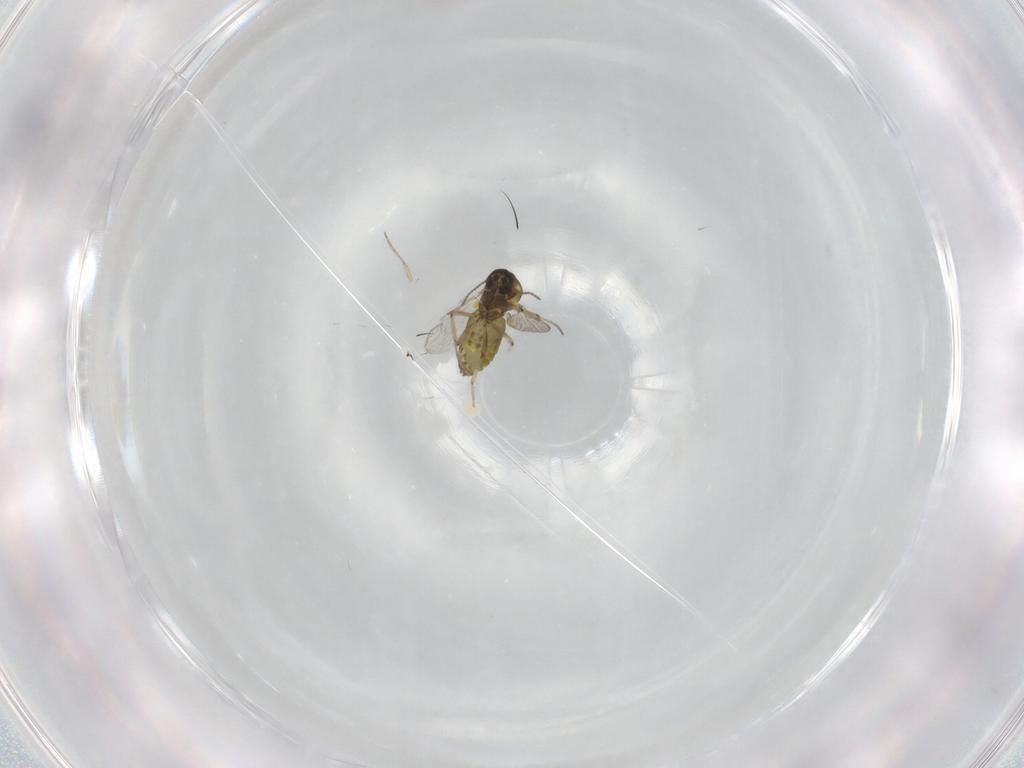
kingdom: Animalia
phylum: Arthropoda
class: Insecta
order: Diptera
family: Ceratopogonidae
